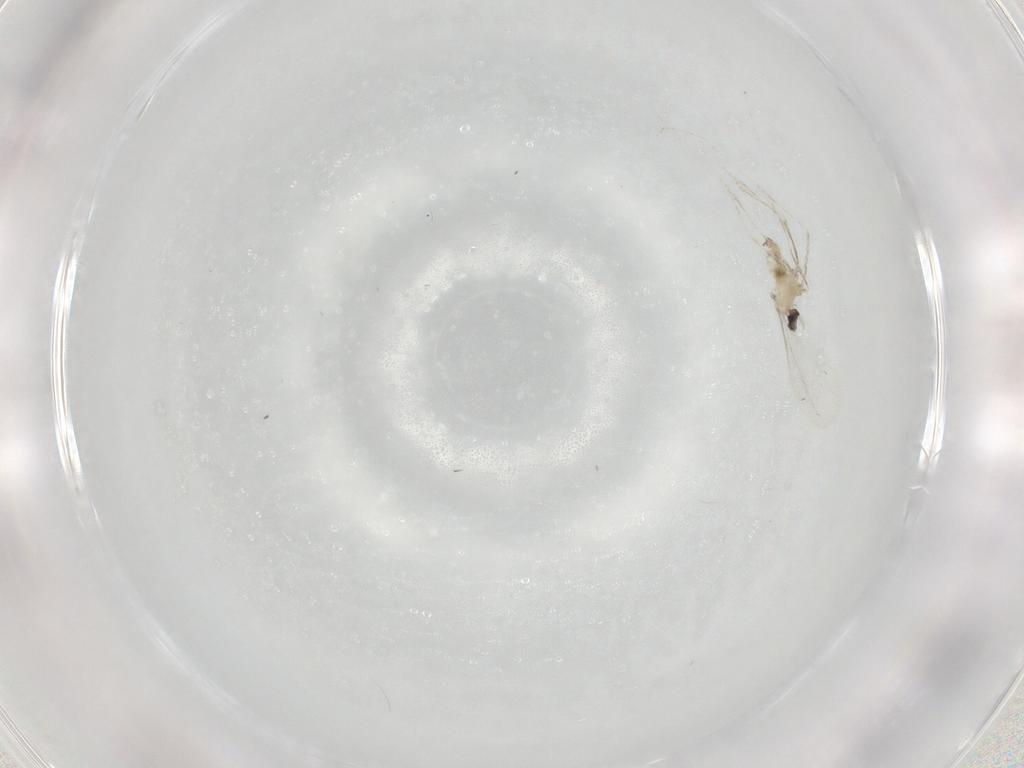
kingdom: Animalia
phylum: Arthropoda
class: Insecta
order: Diptera
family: Cecidomyiidae
